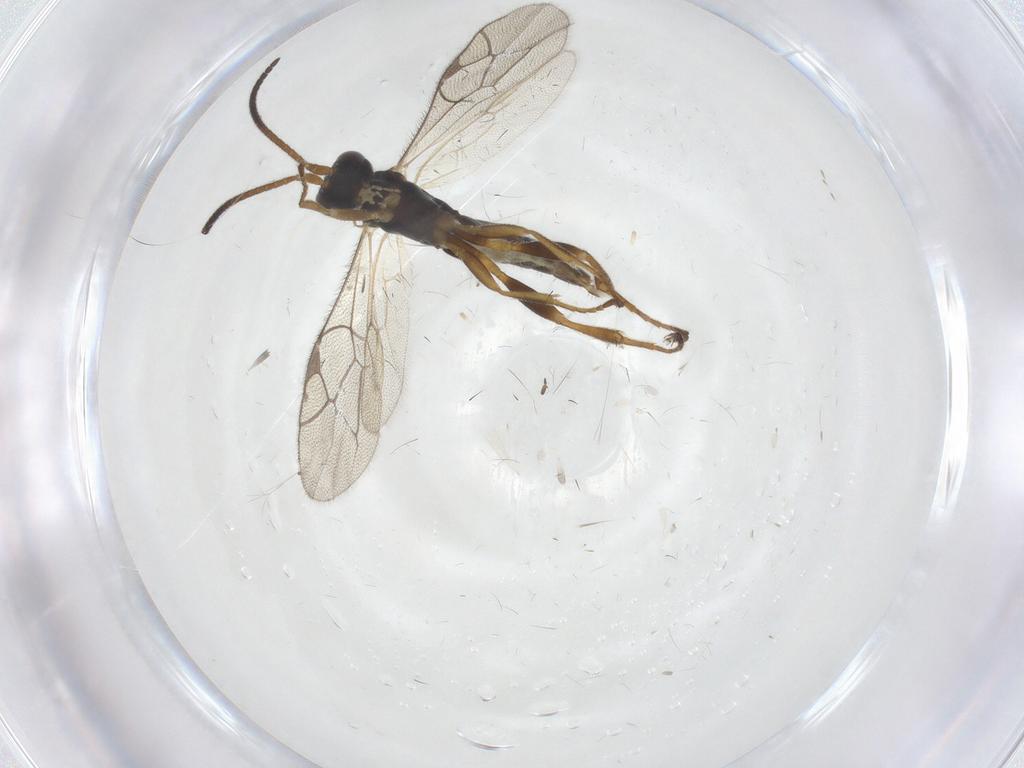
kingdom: Animalia
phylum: Arthropoda
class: Insecta
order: Hymenoptera
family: Ichneumonidae
